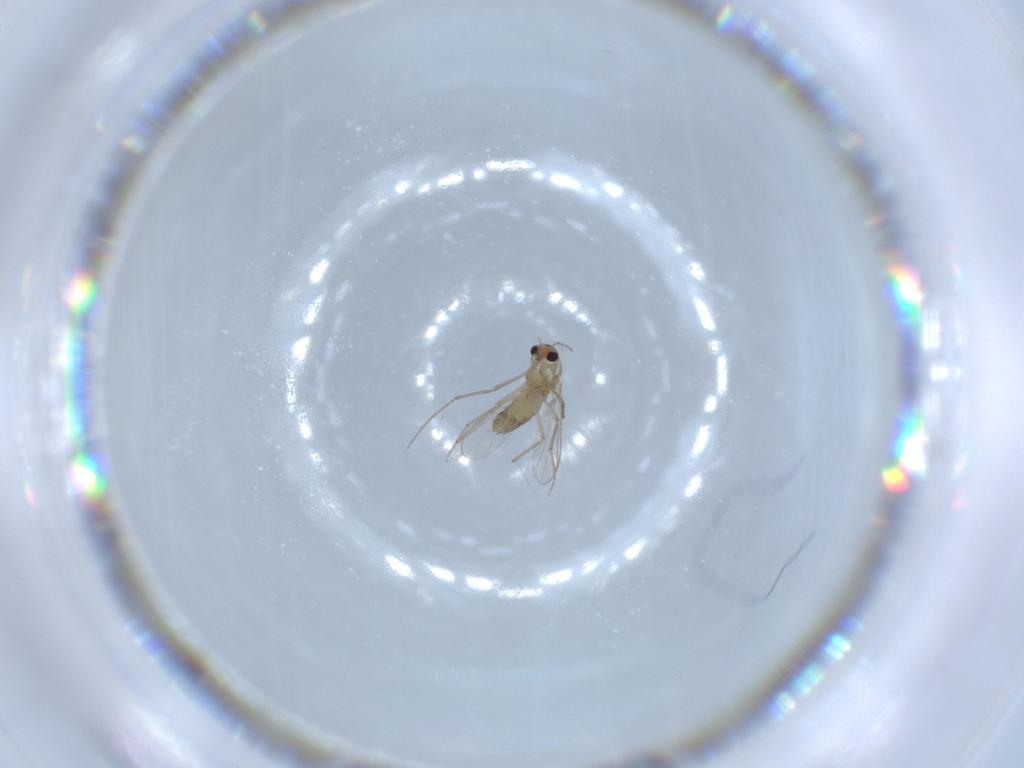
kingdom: Animalia
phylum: Arthropoda
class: Insecta
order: Diptera
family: Chironomidae
